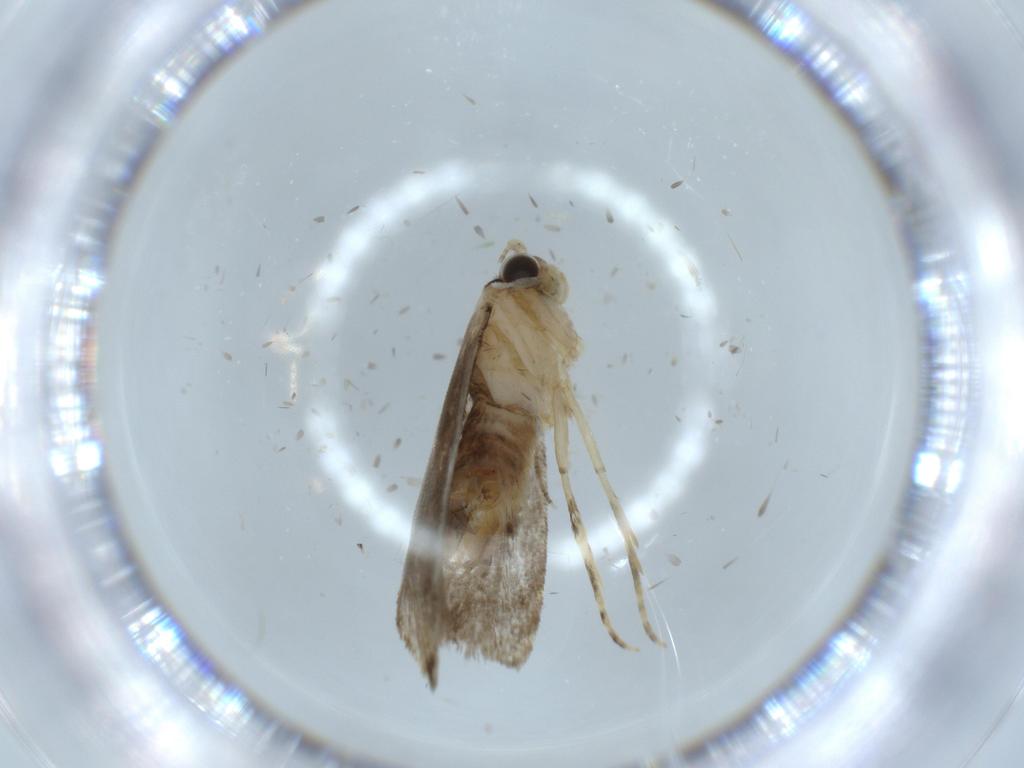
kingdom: Animalia
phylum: Arthropoda
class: Insecta
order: Lepidoptera
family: Tineidae
